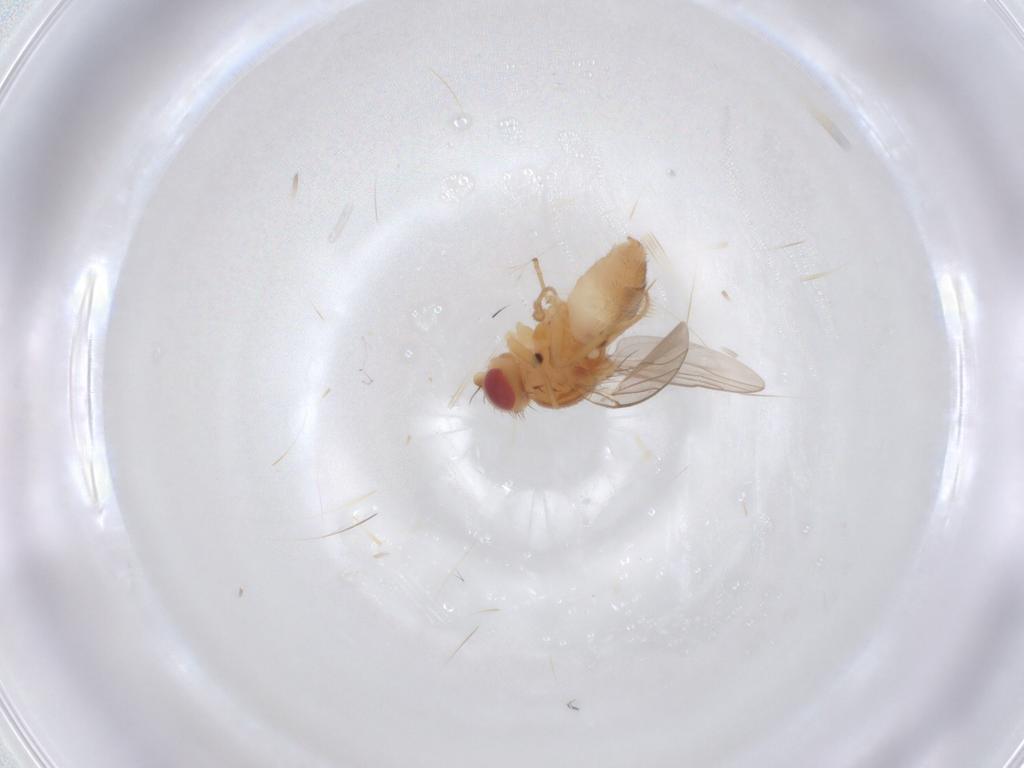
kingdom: Animalia
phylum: Arthropoda
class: Insecta
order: Diptera
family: Chloropidae
